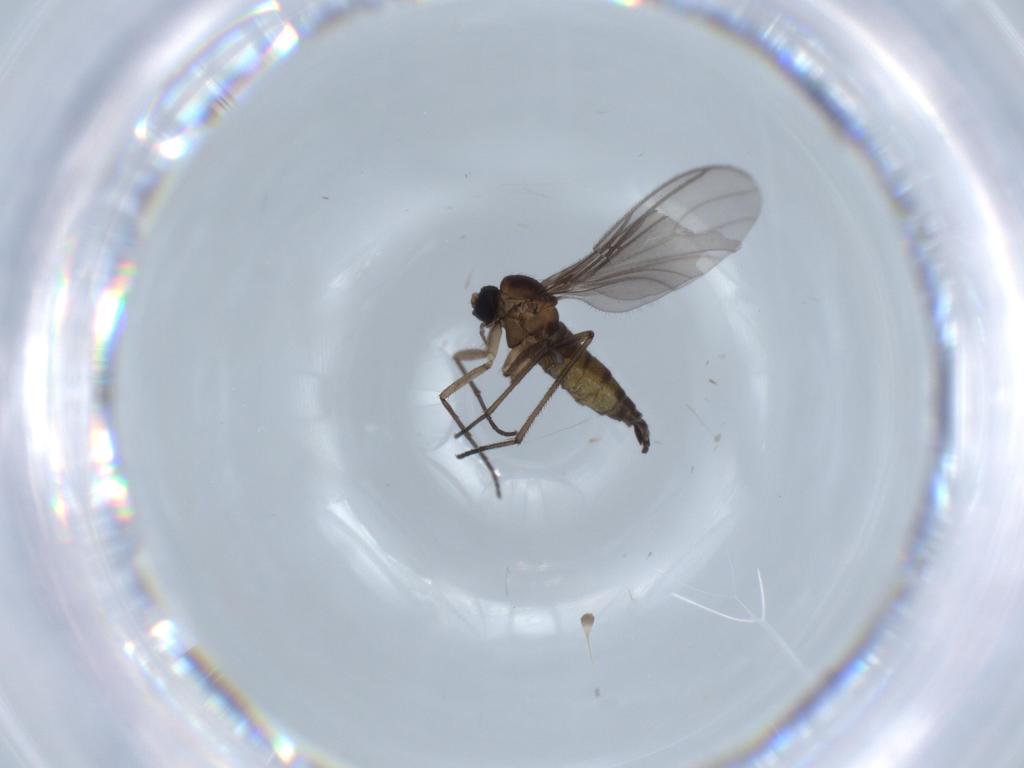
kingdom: Animalia
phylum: Arthropoda
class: Insecta
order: Diptera
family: Sciaridae
